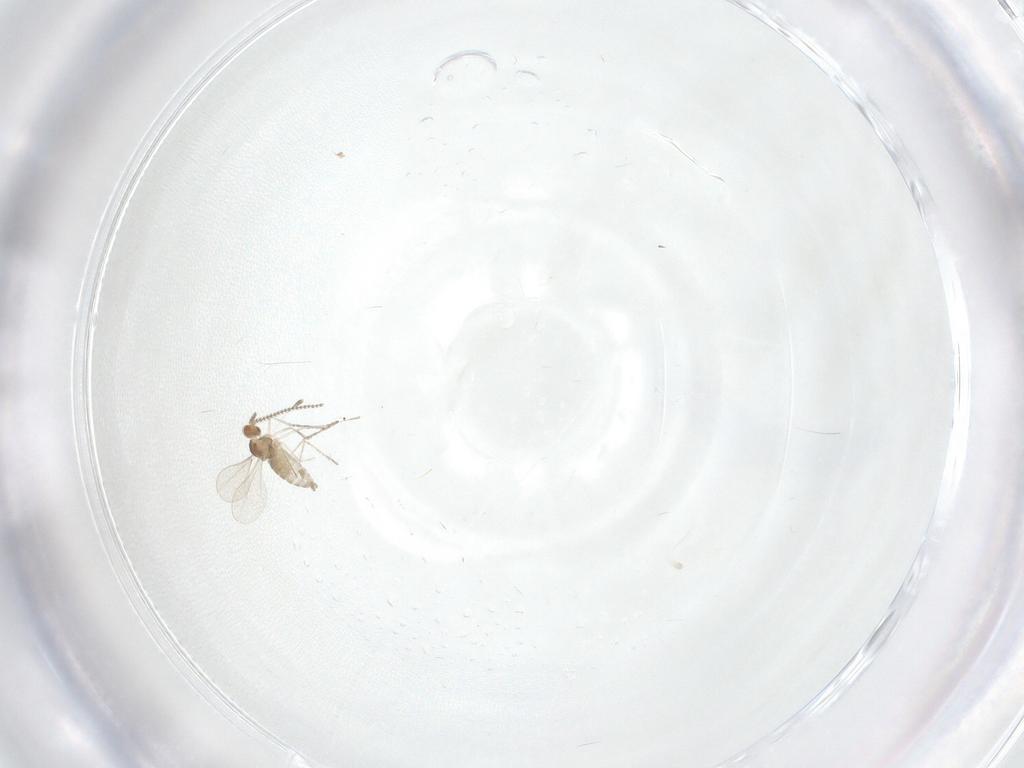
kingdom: Animalia
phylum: Arthropoda
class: Insecta
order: Diptera
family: Cecidomyiidae
